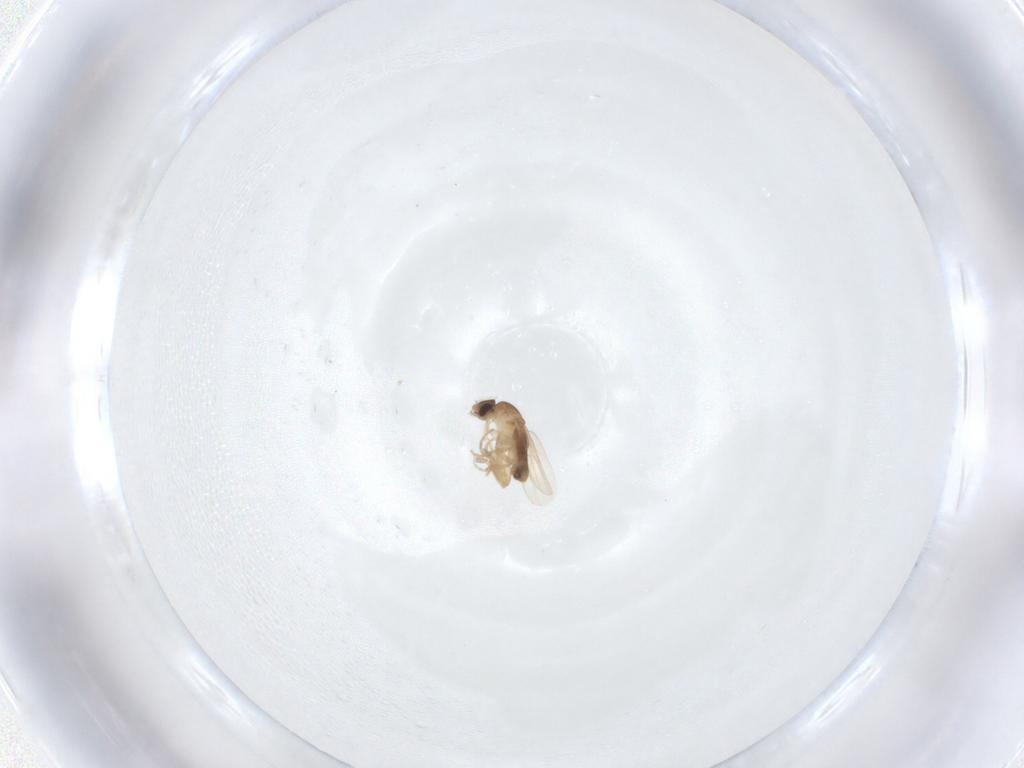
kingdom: Animalia
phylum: Arthropoda
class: Insecta
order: Diptera
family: Phoridae
